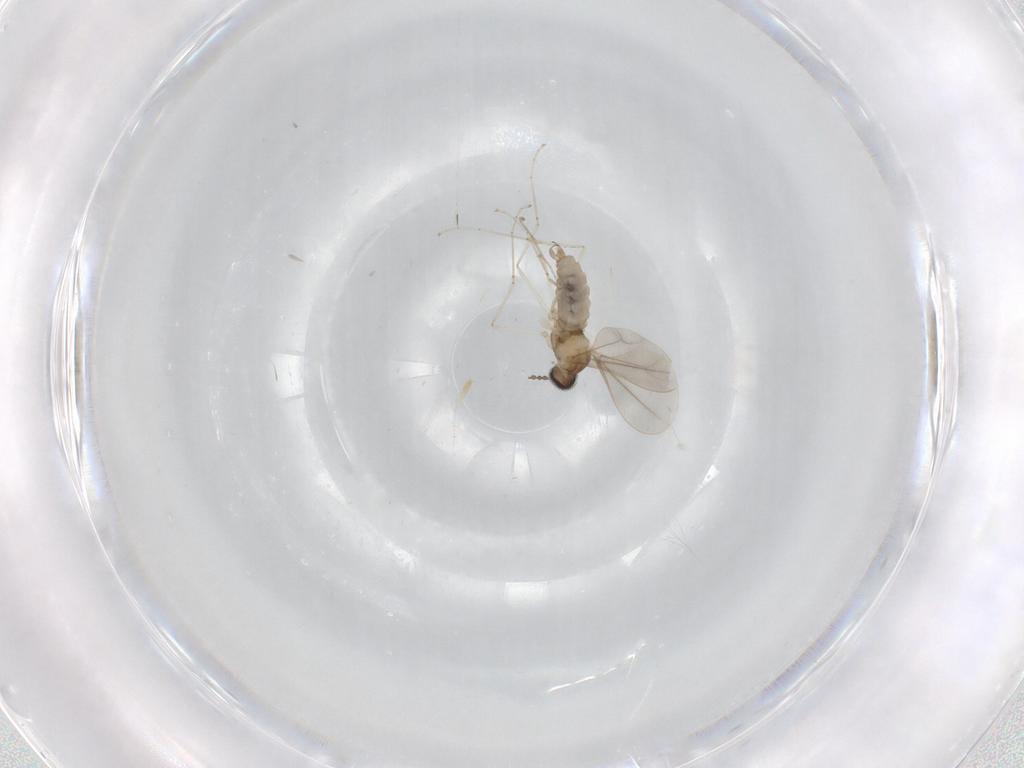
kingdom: Animalia
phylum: Arthropoda
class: Insecta
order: Diptera
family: Cecidomyiidae
